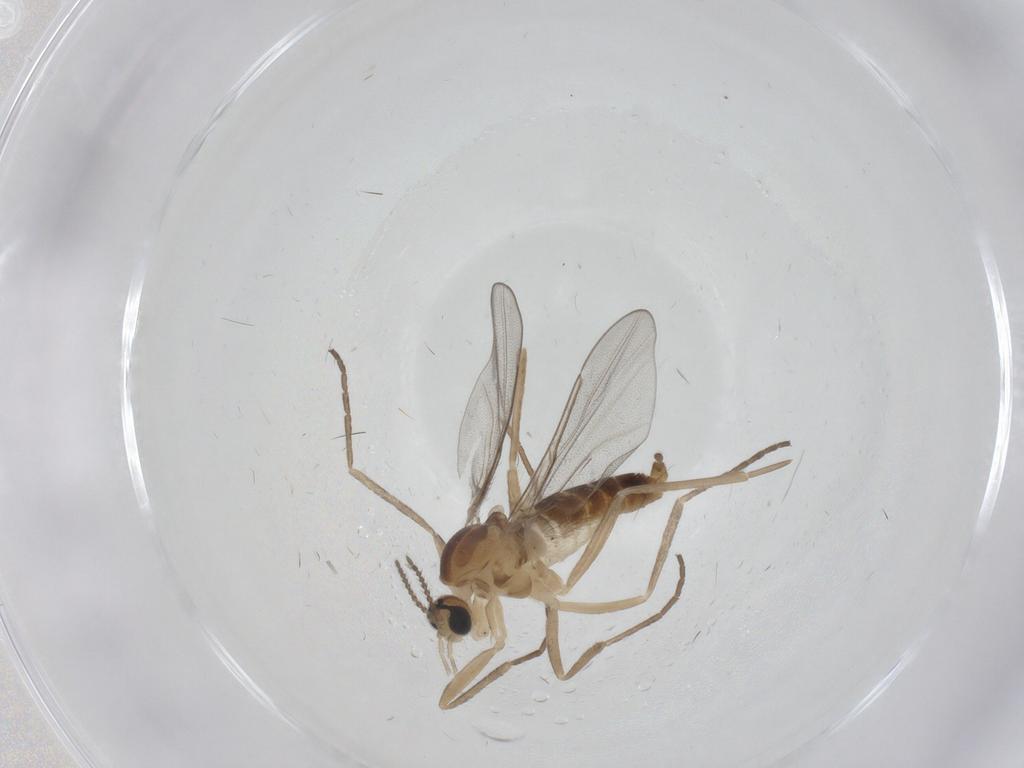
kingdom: Animalia
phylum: Arthropoda
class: Insecta
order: Diptera
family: Cecidomyiidae
